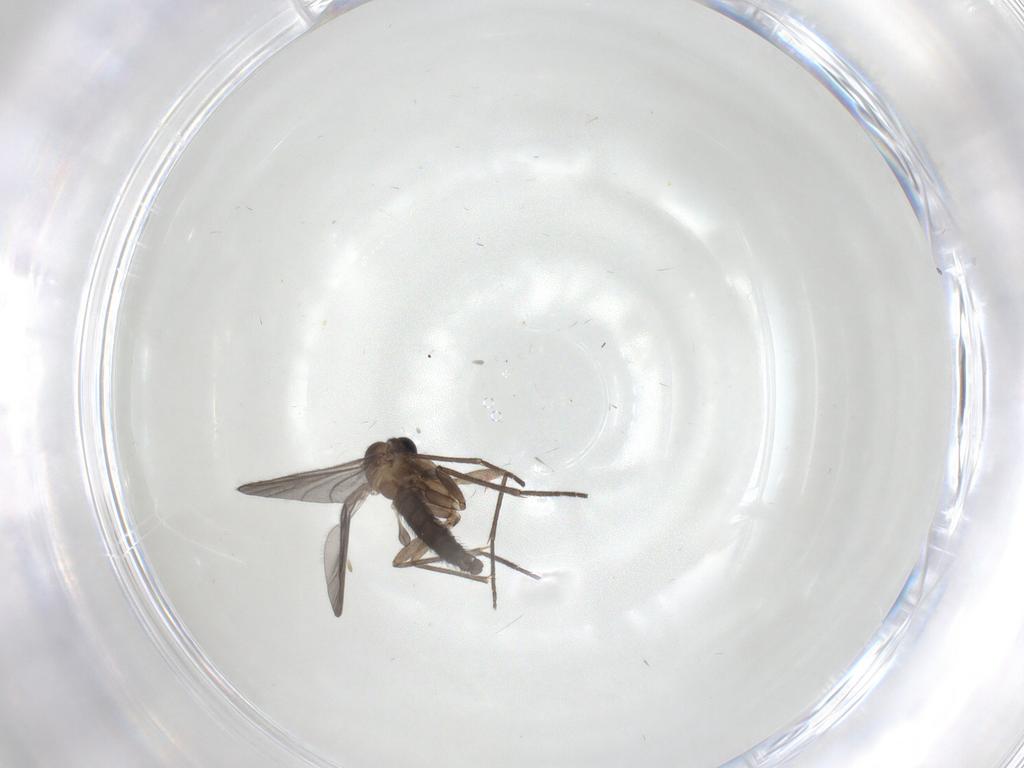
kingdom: Animalia
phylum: Arthropoda
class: Insecta
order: Diptera
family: Sciaridae
